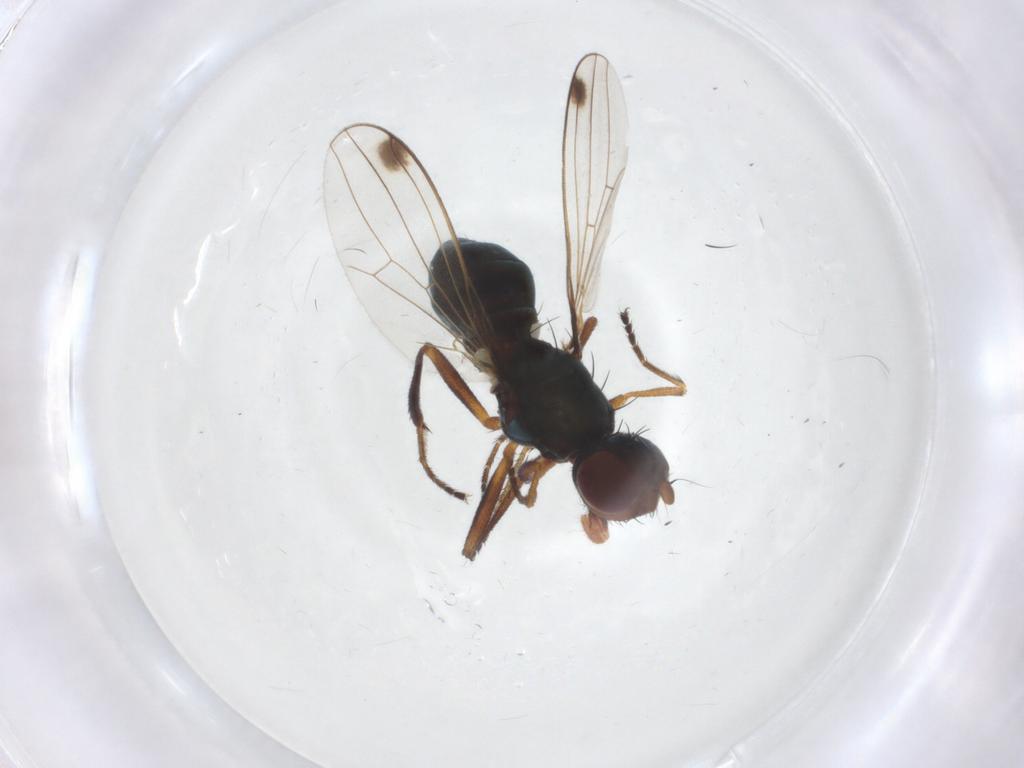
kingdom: Animalia
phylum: Arthropoda
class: Insecta
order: Diptera
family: Sepsidae
